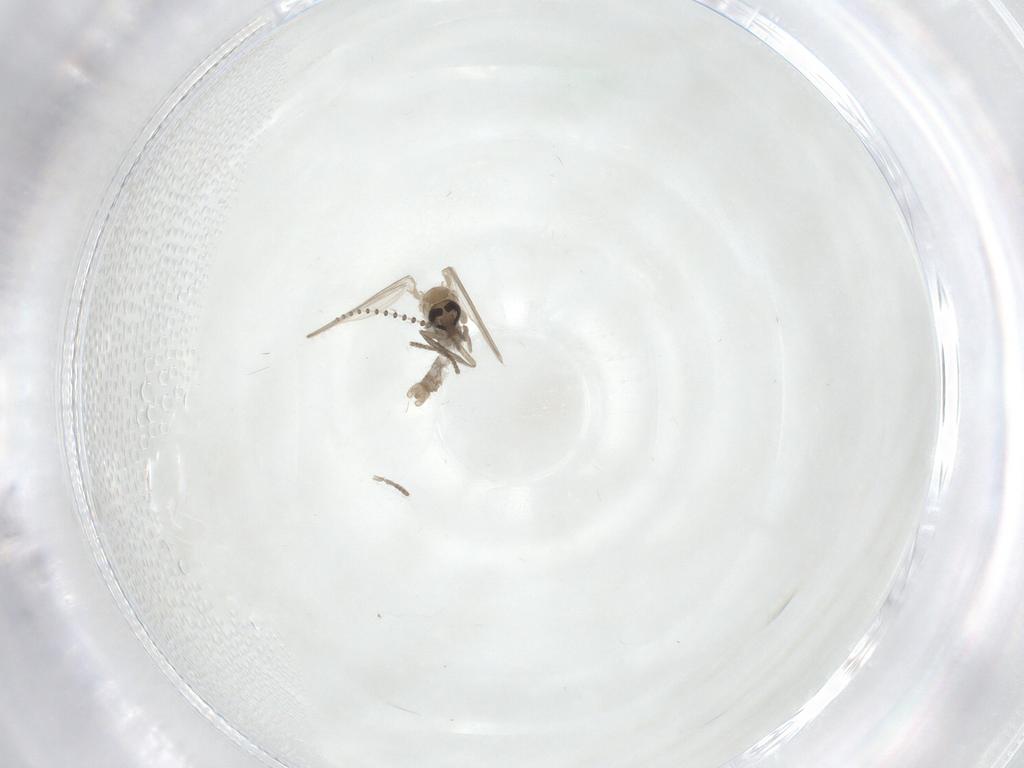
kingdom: Animalia
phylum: Arthropoda
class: Insecta
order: Diptera
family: Psychodidae
